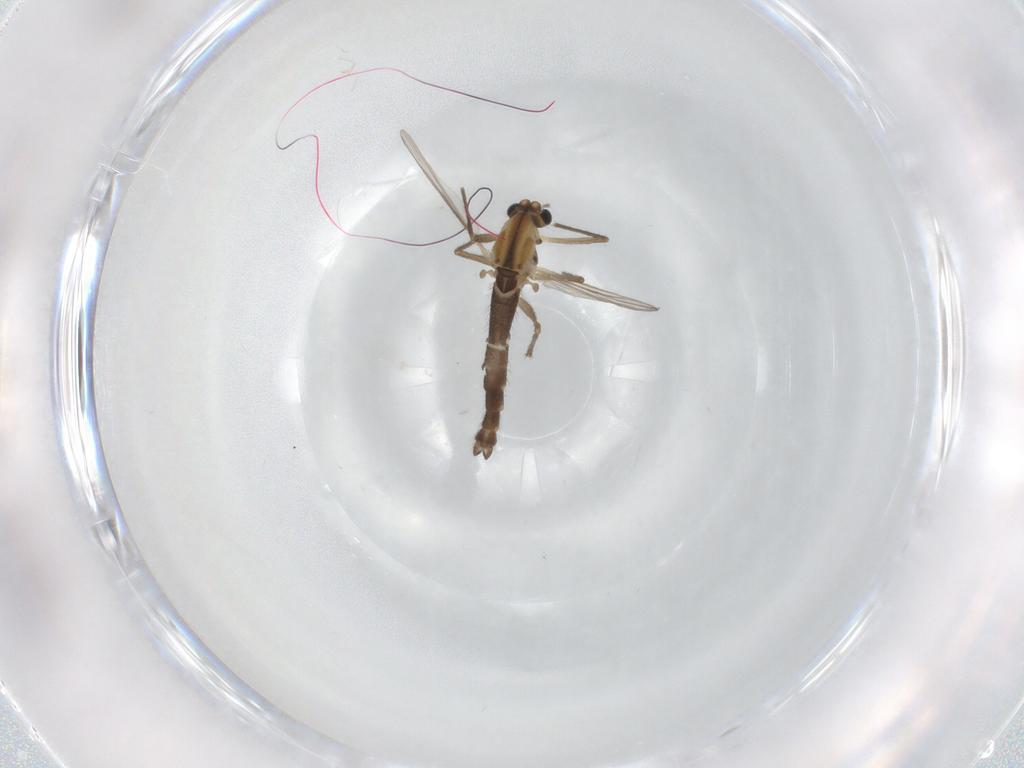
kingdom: Animalia
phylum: Arthropoda
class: Insecta
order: Diptera
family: Chironomidae
